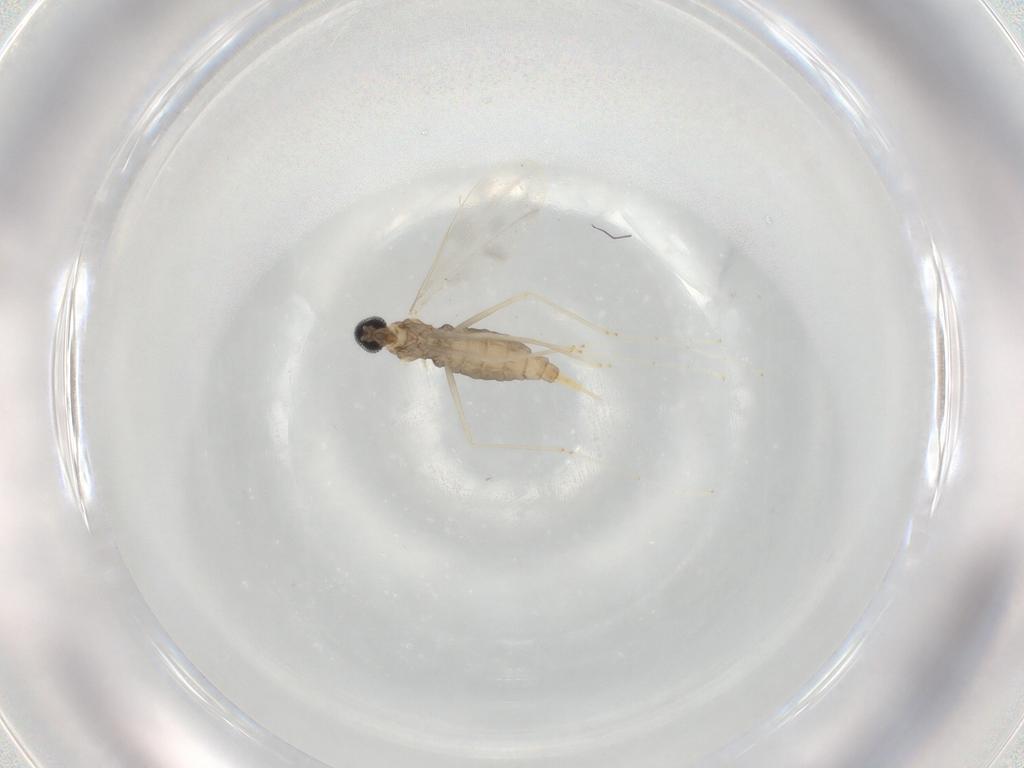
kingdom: Animalia
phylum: Arthropoda
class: Insecta
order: Diptera
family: Cecidomyiidae
